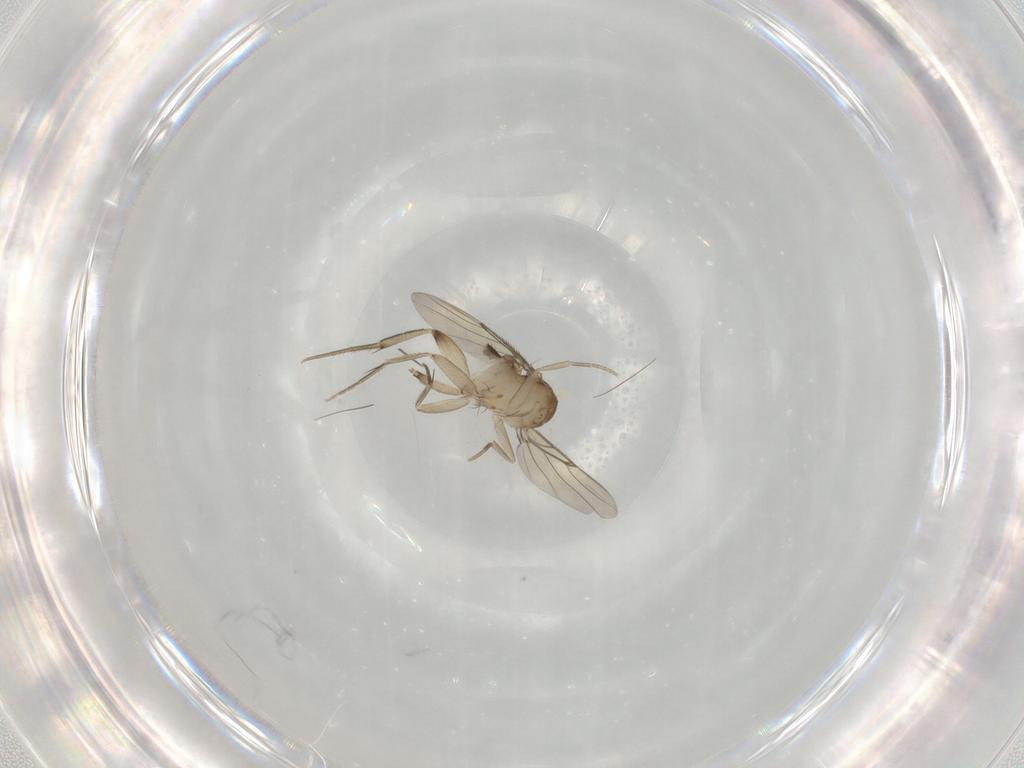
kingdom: Animalia
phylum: Arthropoda
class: Insecta
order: Diptera
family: Phoridae
